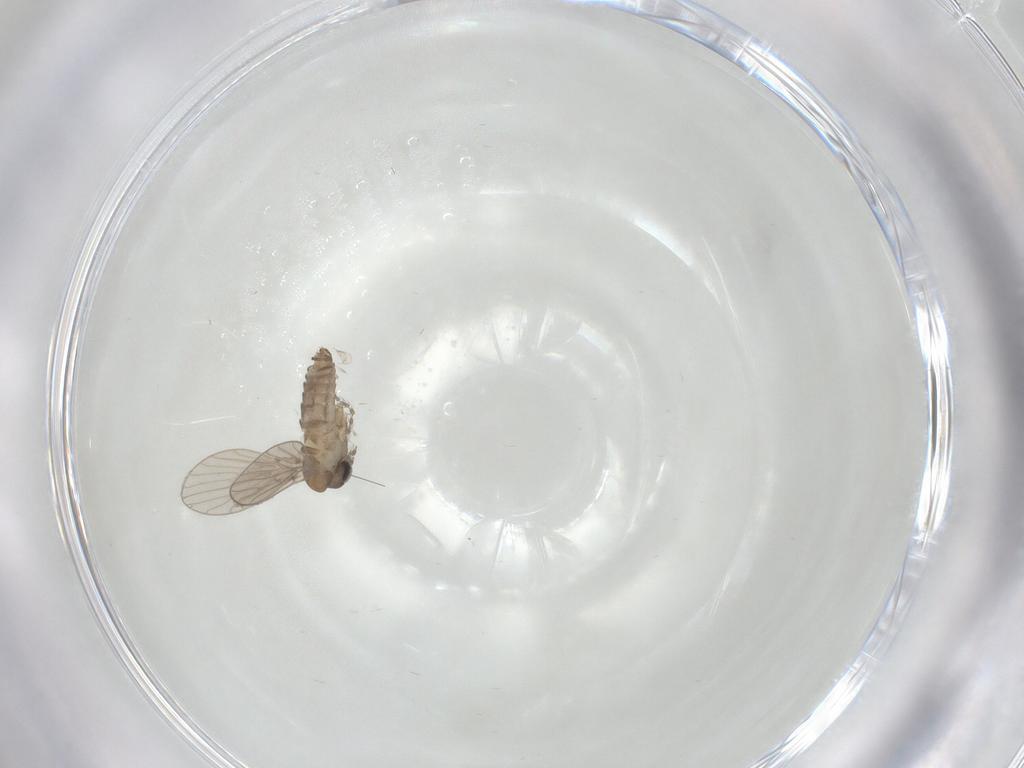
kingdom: Animalia
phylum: Arthropoda
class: Insecta
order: Diptera
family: Psychodidae
